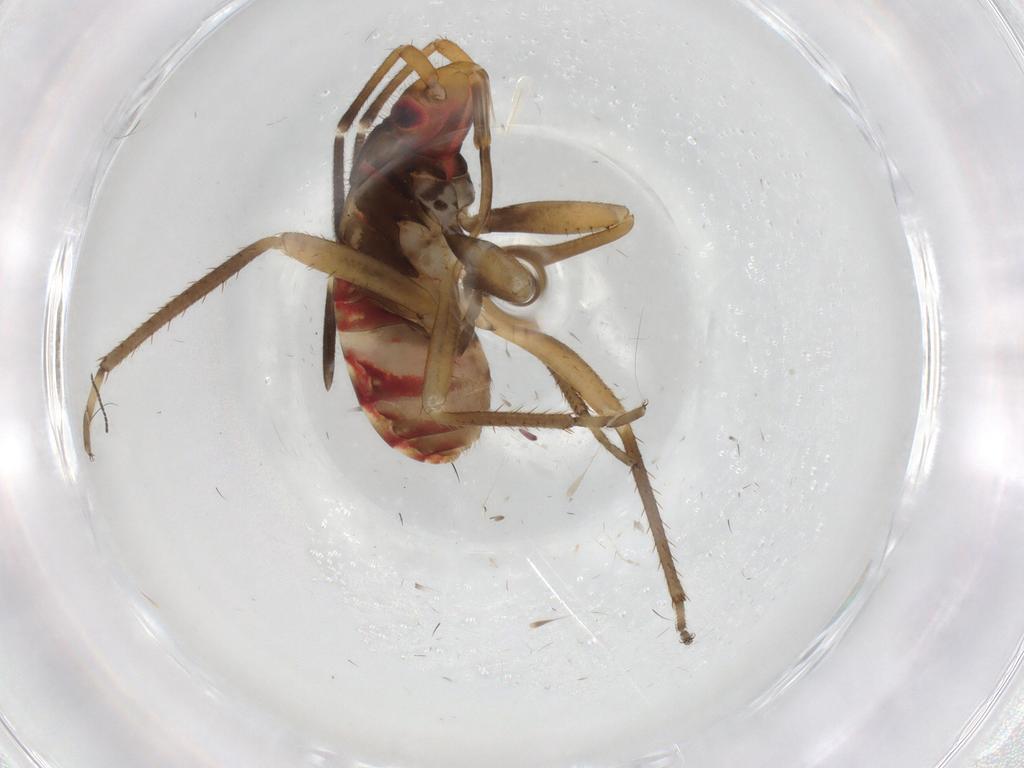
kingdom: Animalia
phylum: Arthropoda
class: Insecta
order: Hemiptera
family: Rhyparochromidae
